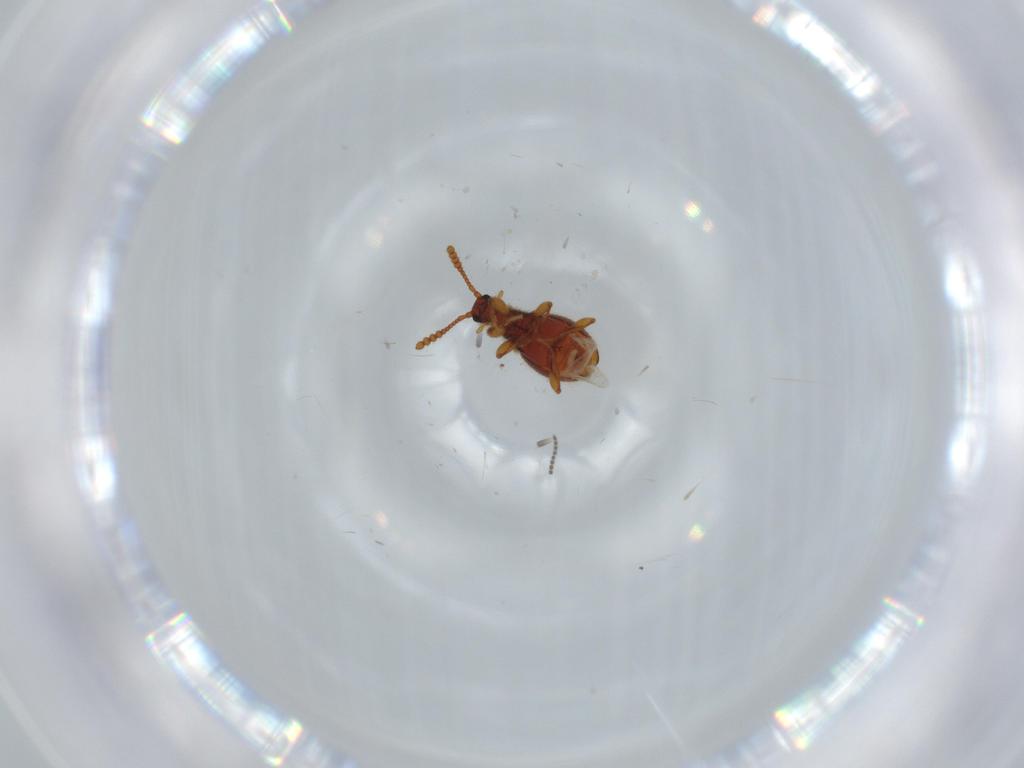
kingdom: Animalia
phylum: Arthropoda
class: Insecta
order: Coleoptera
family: Staphylinidae
